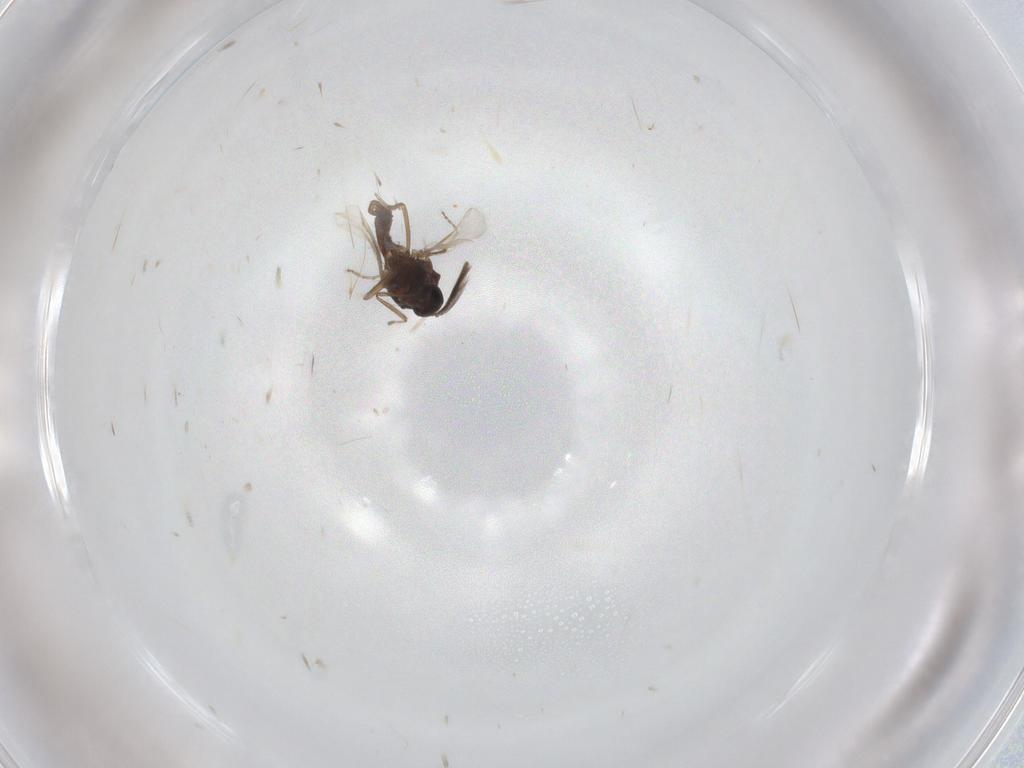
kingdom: Animalia
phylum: Arthropoda
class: Insecta
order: Diptera
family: Ceratopogonidae
